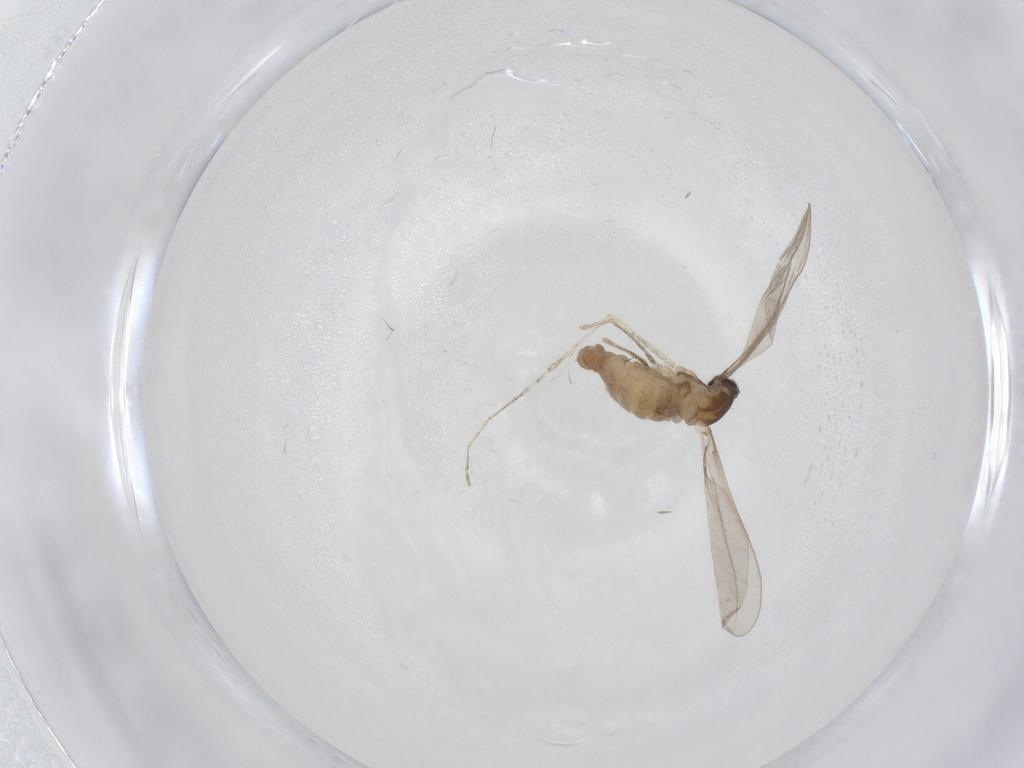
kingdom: Animalia
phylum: Arthropoda
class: Insecta
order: Diptera
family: Cecidomyiidae
